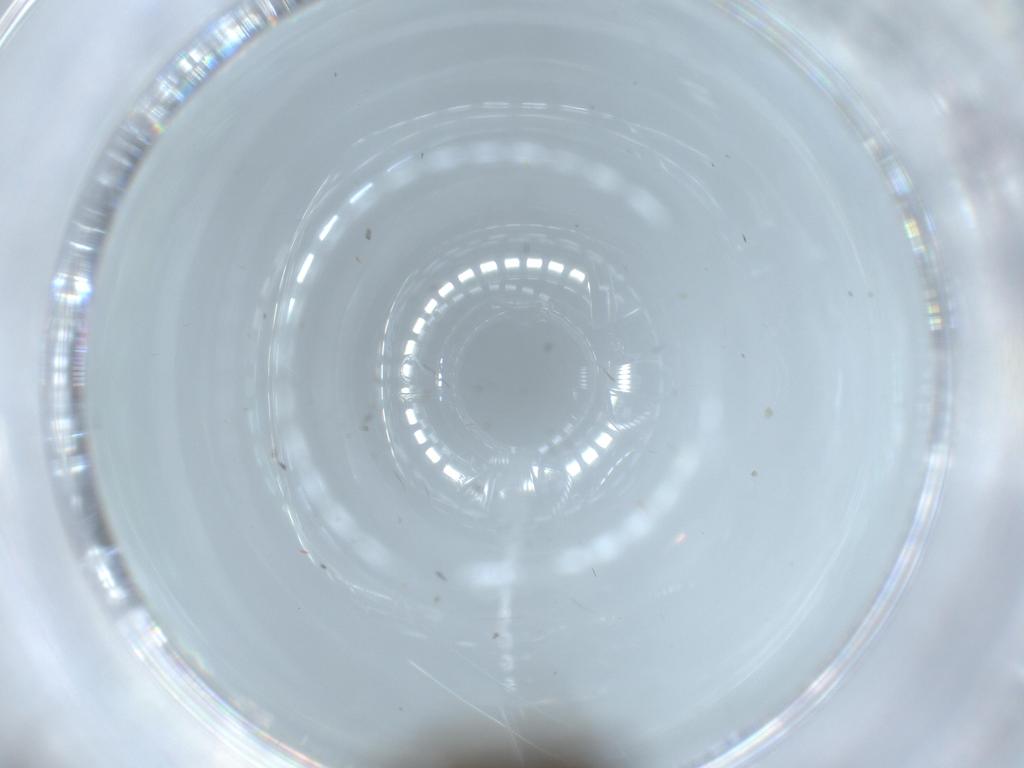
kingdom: Animalia
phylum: Arthropoda
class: Insecta
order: Diptera
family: Sciaridae
